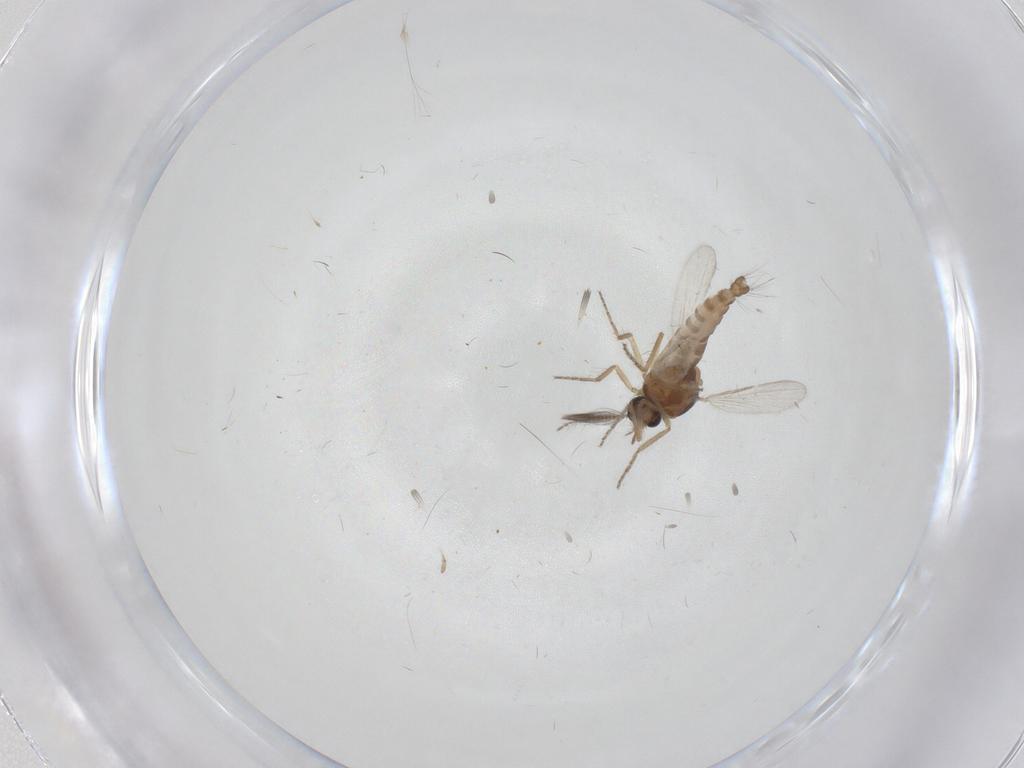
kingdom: Animalia
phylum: Arthropoda
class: Insecta
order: Diptera
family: Ceratopogonidae
